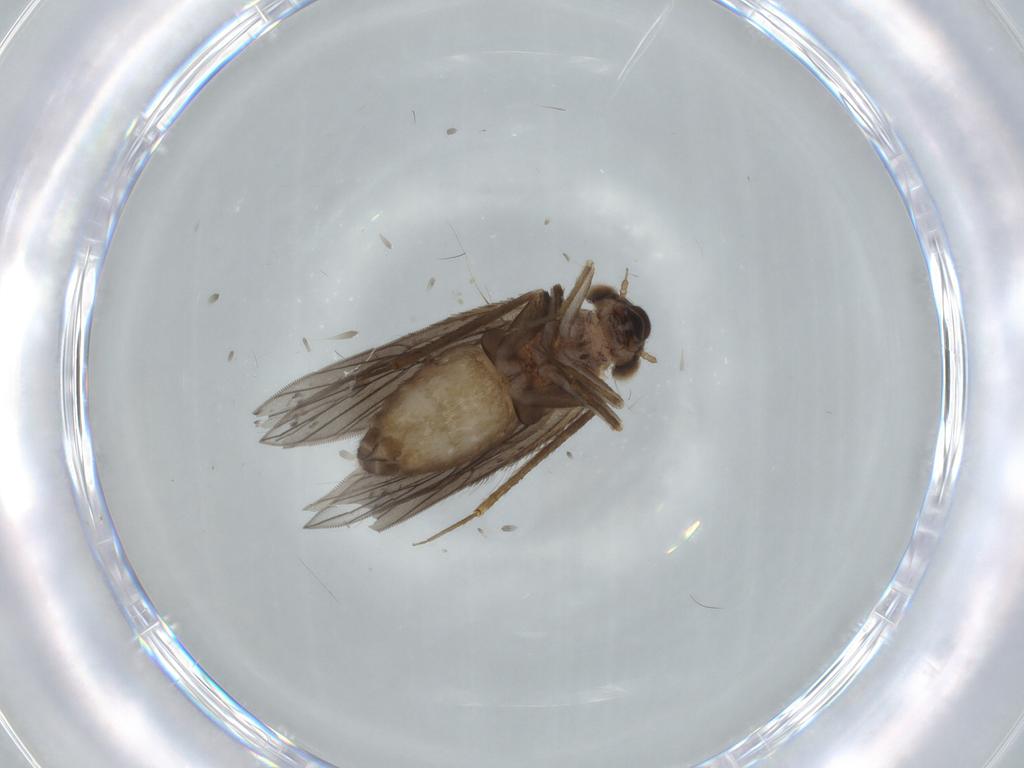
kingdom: Animalia
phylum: Arthropoda
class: Insecta
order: Psocodea
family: Lepidopsocidae
